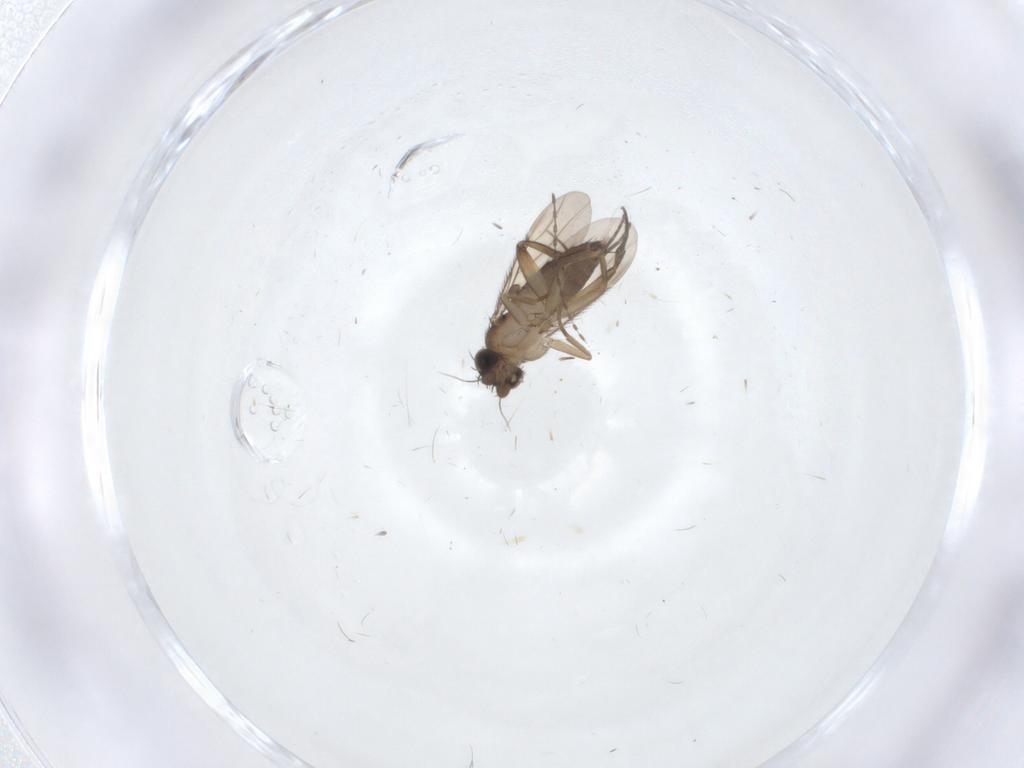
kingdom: Animalia
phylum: Arthropoda
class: Insecta
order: Diptera
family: Phoridae
